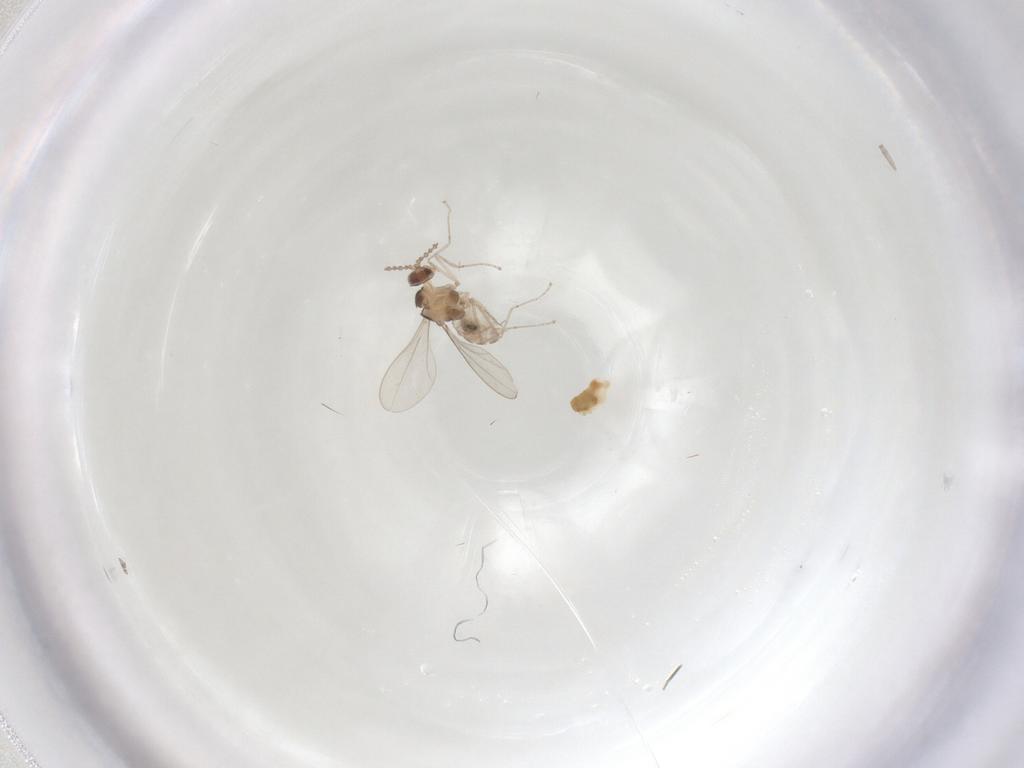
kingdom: Animalia
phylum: Arthropoda
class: Insecta
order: Diptera
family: Cecidomyiidae
